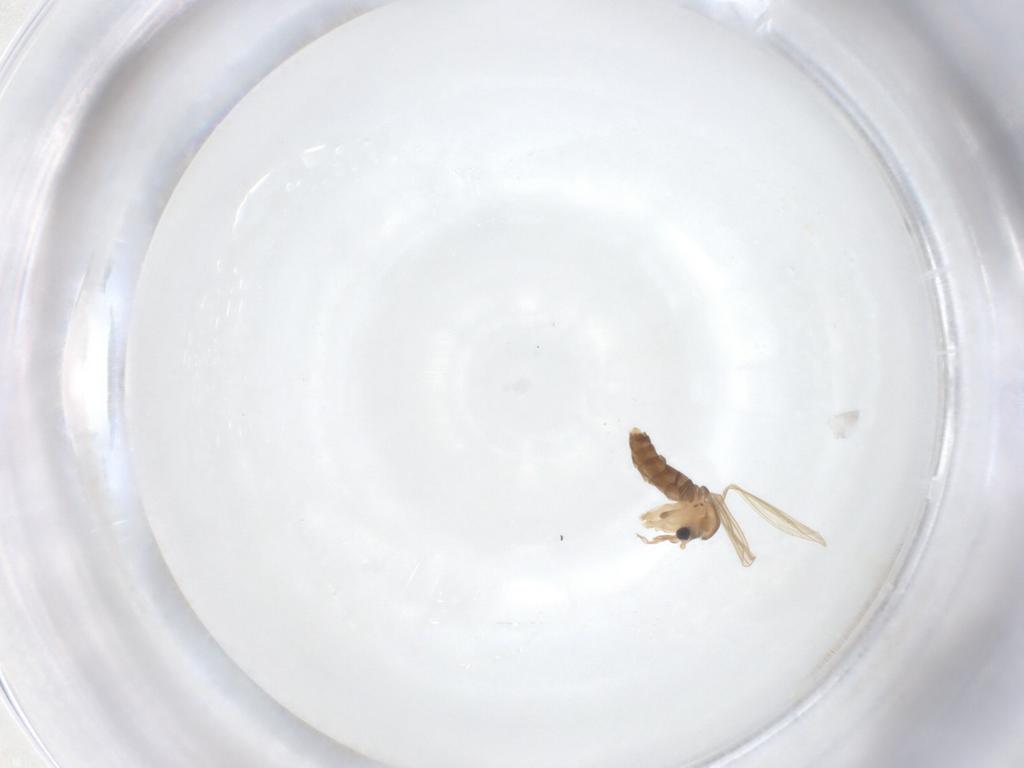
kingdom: Animalia
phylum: Arthropoda
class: Insecta
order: Diptera
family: Psychodidae
